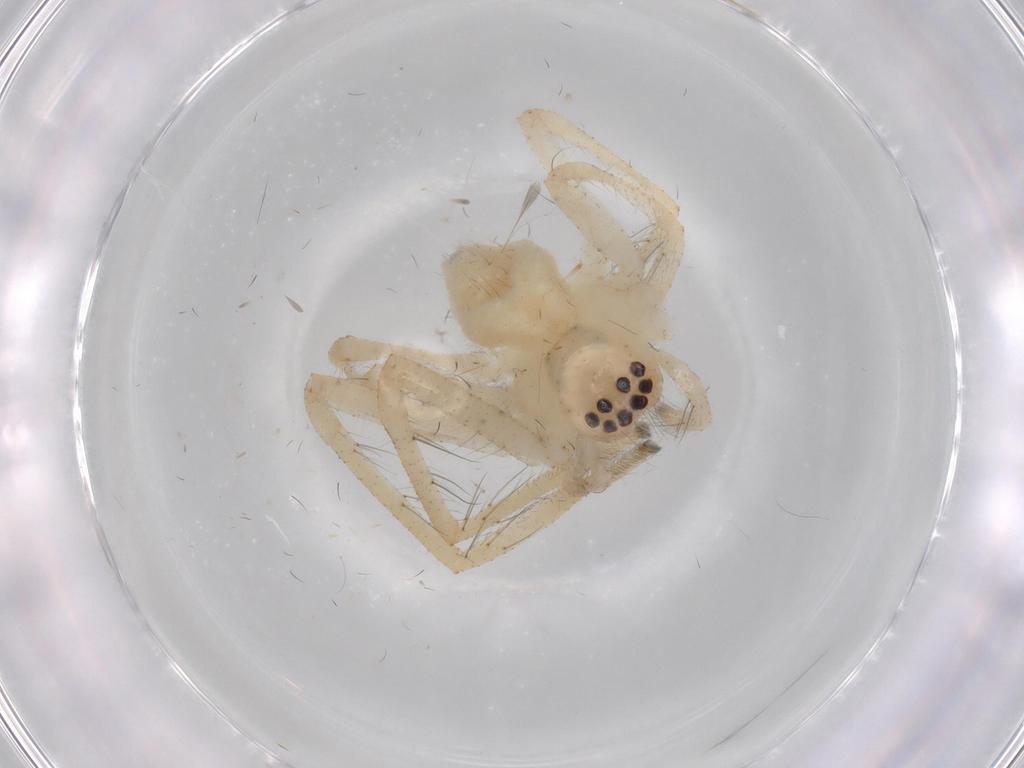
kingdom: Animalia
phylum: Arthropoda
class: Arachnida
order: Araneae
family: Sparassidae
